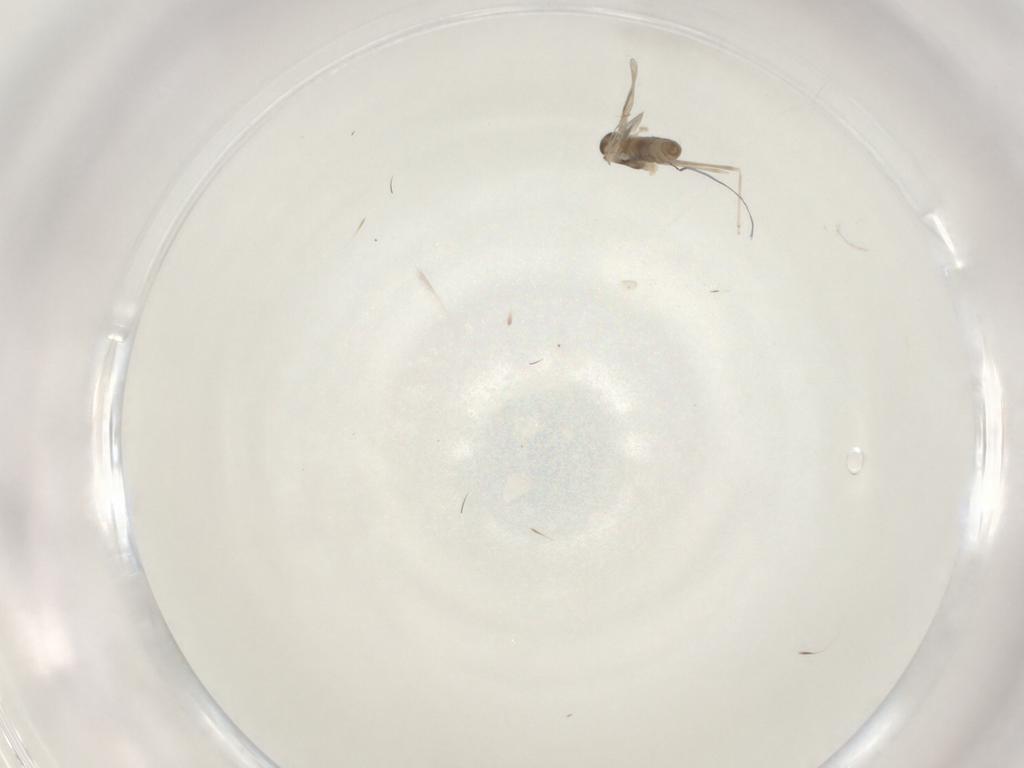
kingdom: Animalia
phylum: Arthropoda
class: Insecta
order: Diptera
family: Cecidomyiidae
